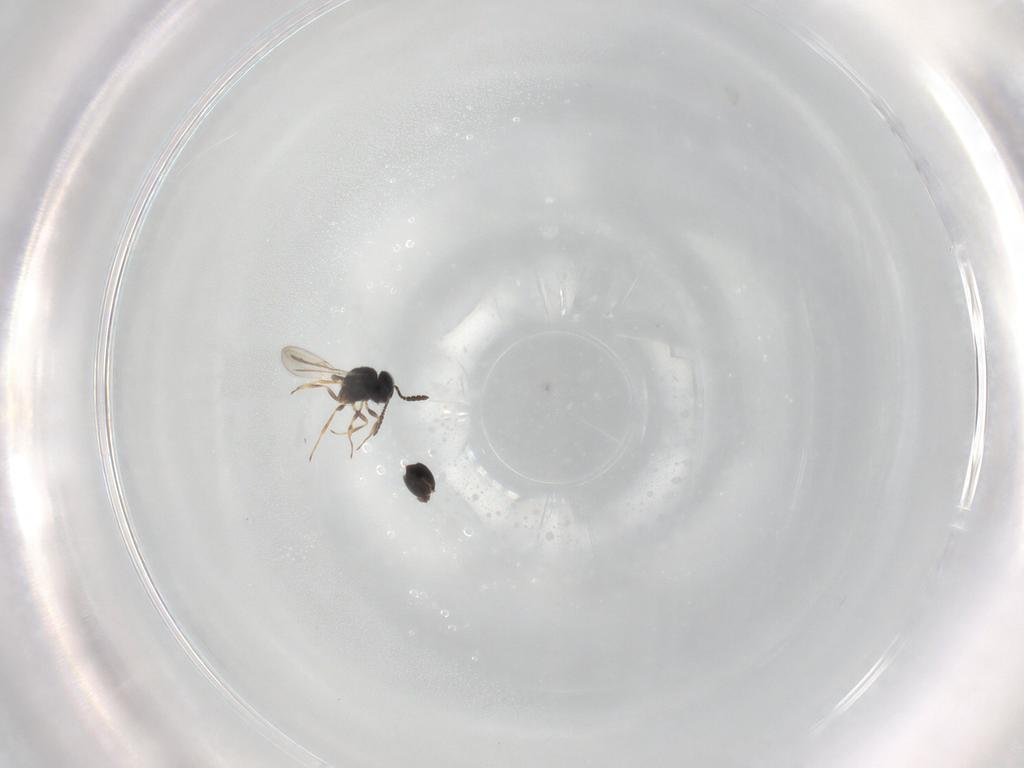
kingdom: Animalia
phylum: Arthropoda
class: Insecta
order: Hymenoptera
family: Scelionidae
